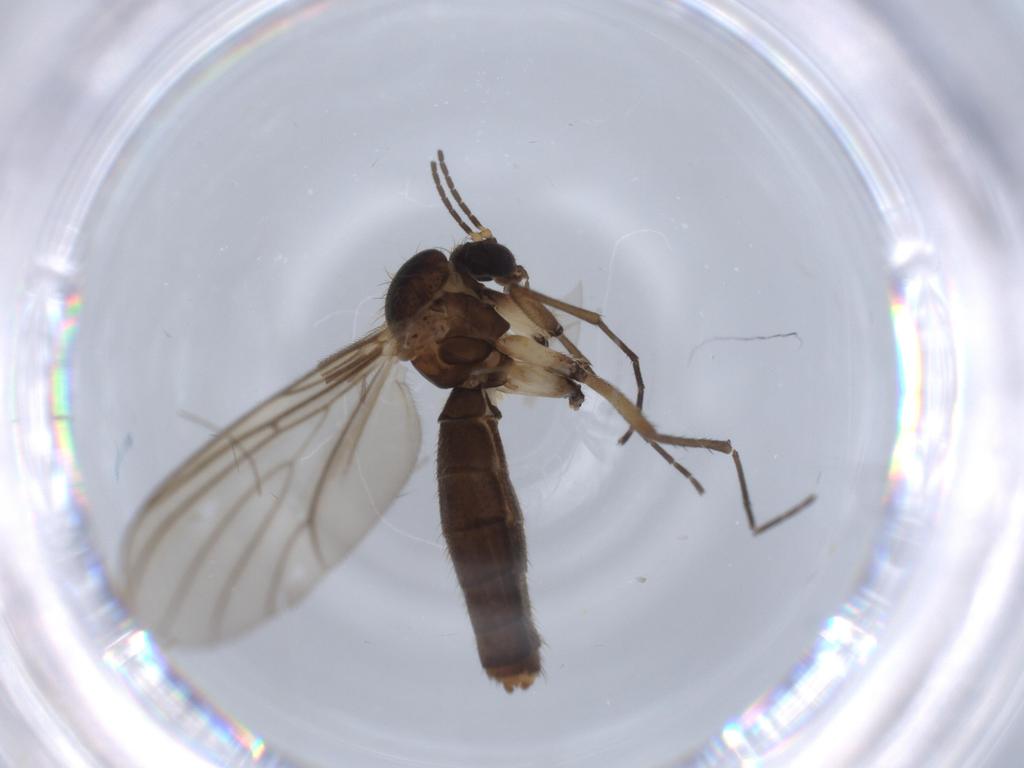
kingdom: Animalia
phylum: Arthropoda
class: Insecta
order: Diptera
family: Mycetophilidae
